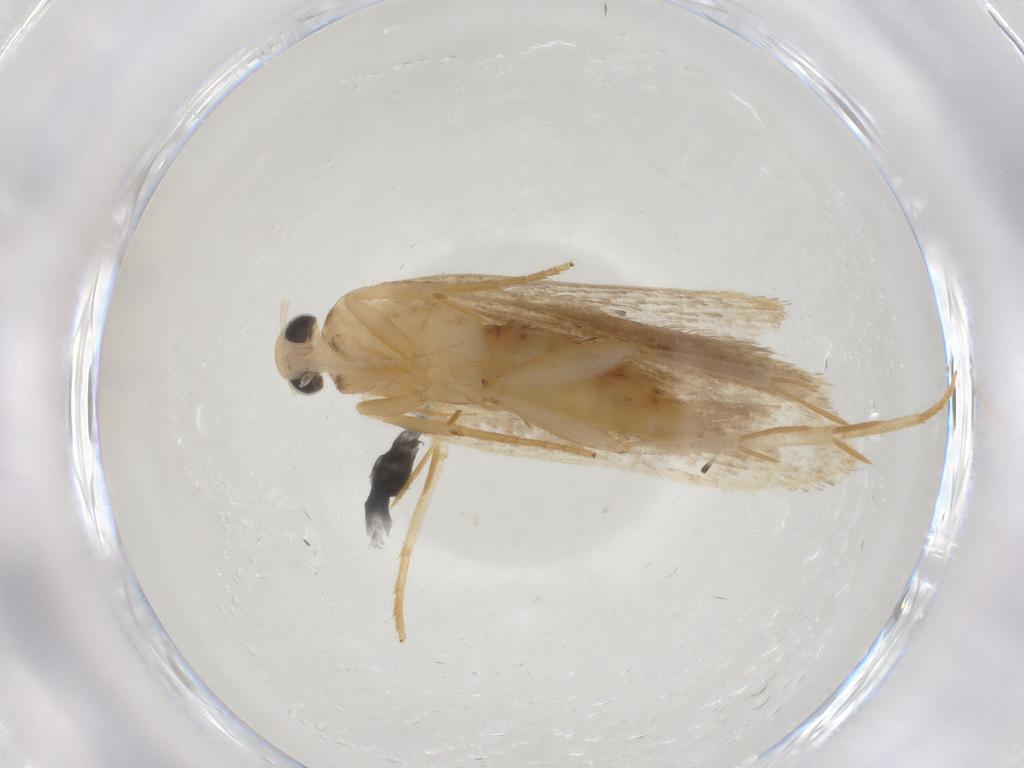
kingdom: Animalia
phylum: Arthropoda
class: Insecta
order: Lepidoptera
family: Gelechiidae
